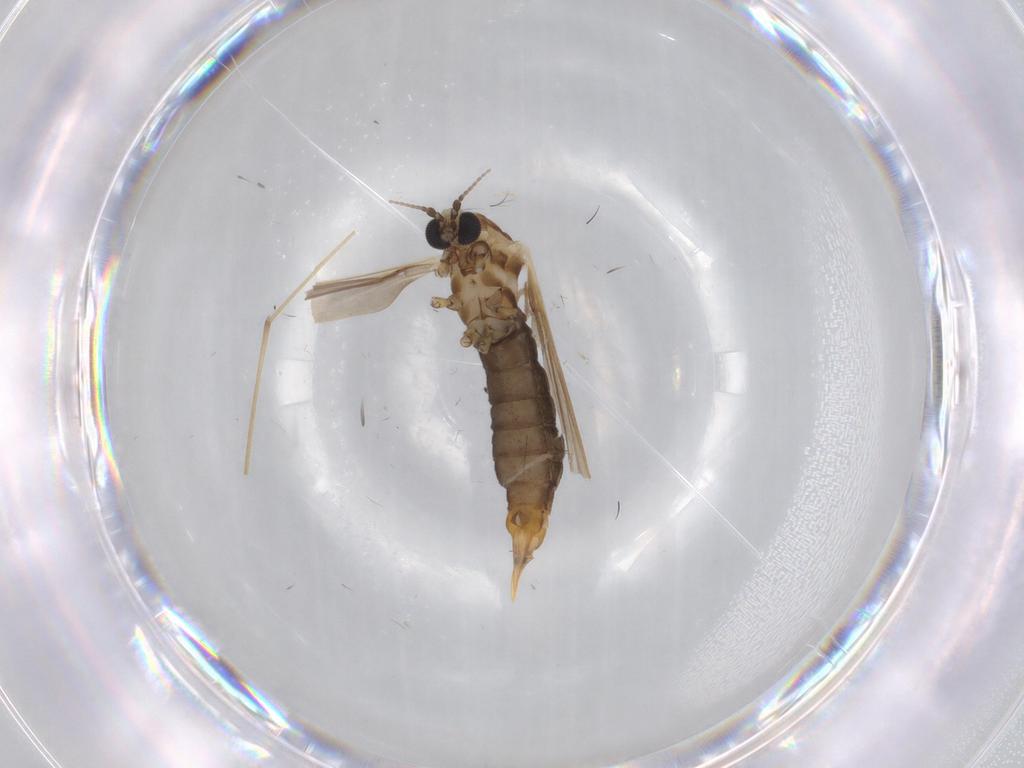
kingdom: Animalia
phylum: Arthropoda
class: Insecta
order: Diptera
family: Limoniidae
